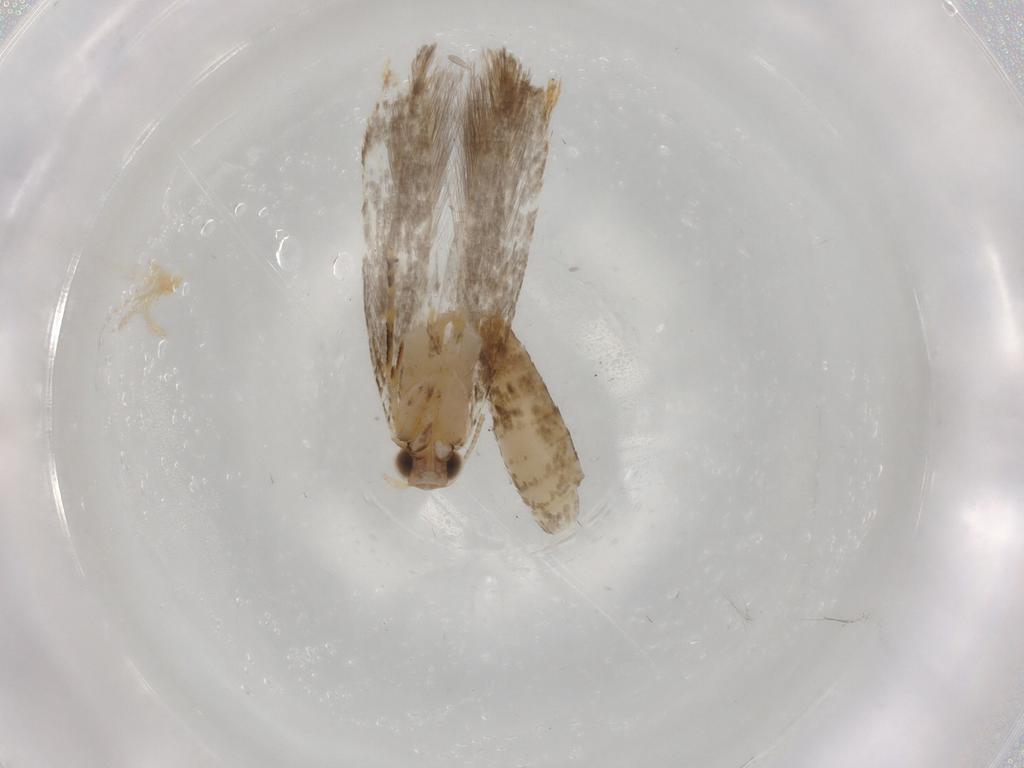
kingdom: Animalia
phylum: Arthropoda
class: Insecta
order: Lepidoptera
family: Tineidae
